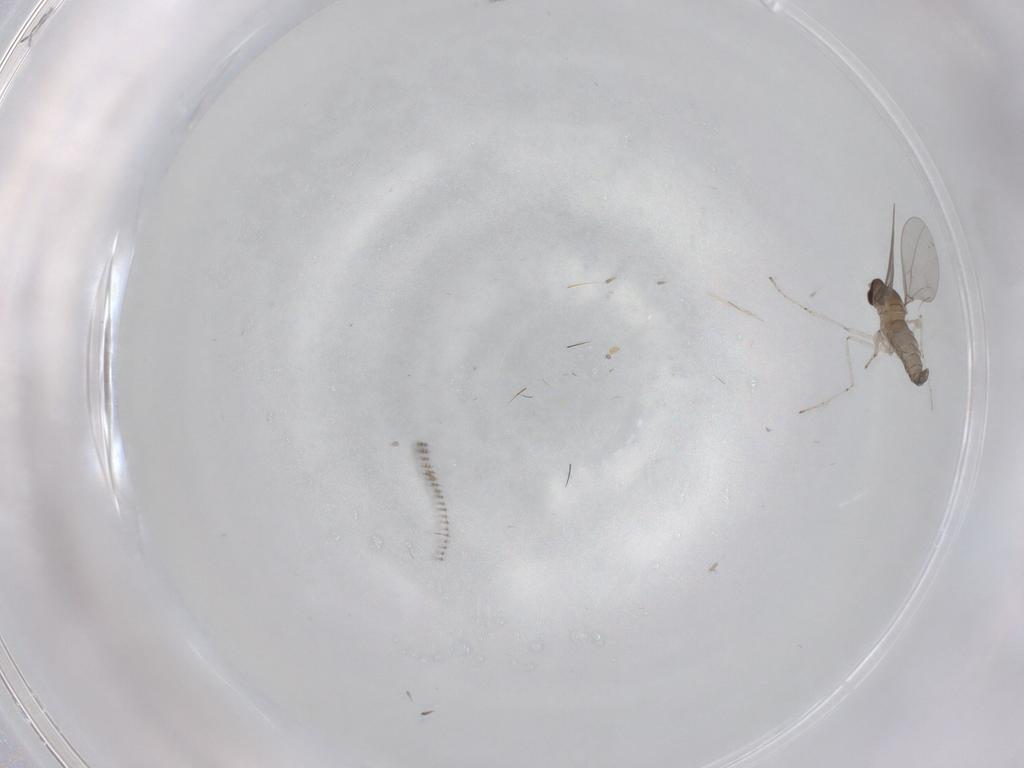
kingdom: Animalia
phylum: Arthropoda
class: Insecta
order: Diptera
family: Cecidomyiidae
